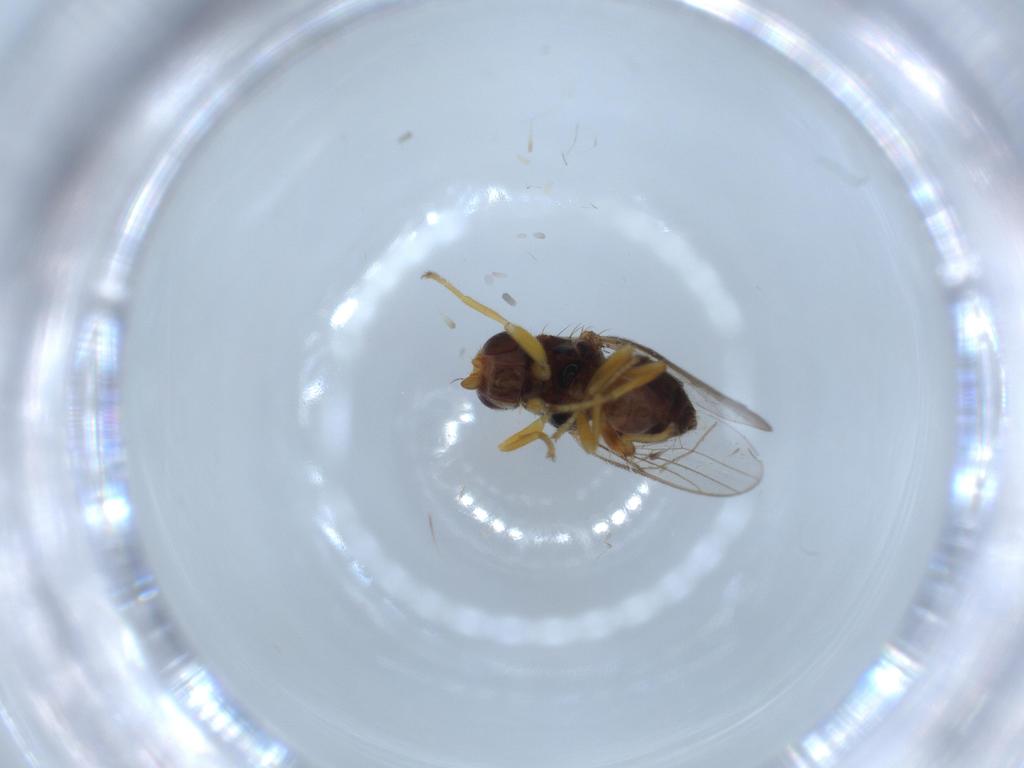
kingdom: Animalia
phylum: Arthropoda
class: Insecta
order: Diptera
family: Chloropidae
